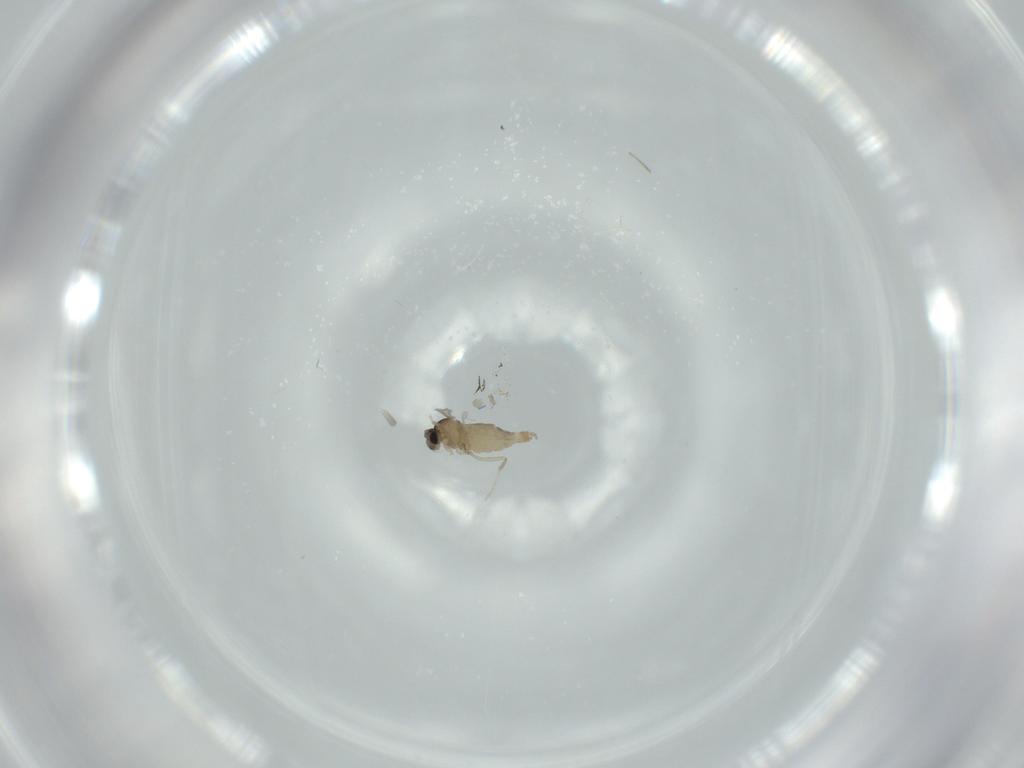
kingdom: Animalia
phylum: Arthropoda
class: Insecta
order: Diptera
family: Cecidomyiidae
